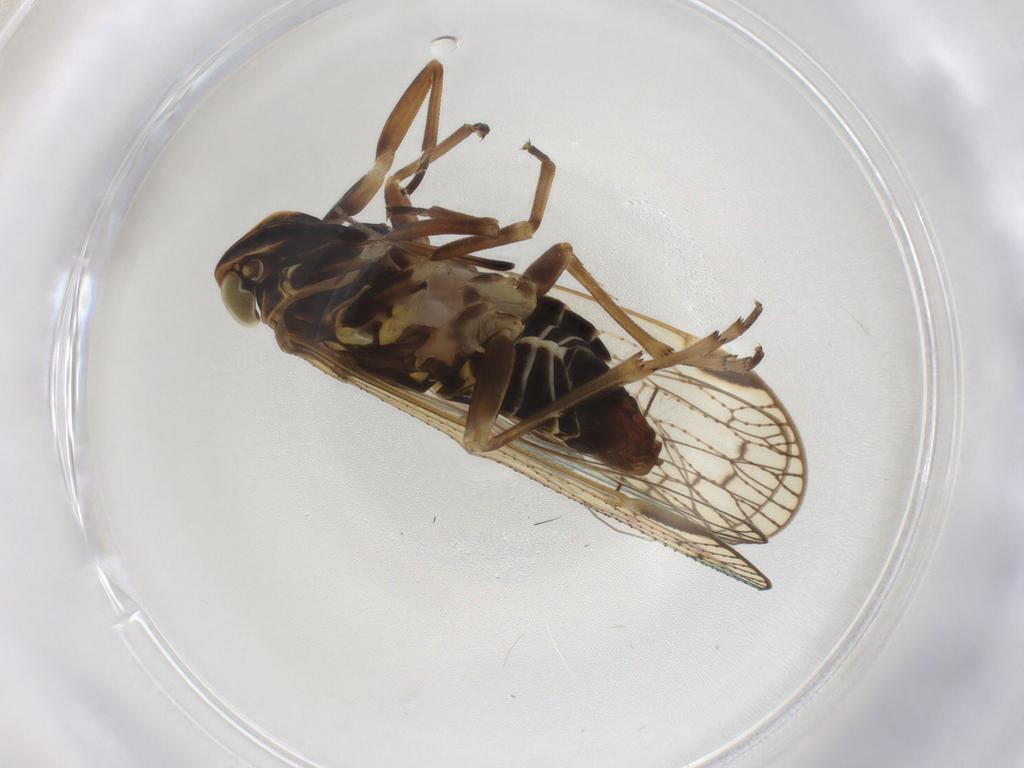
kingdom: Animalia
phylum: Arthropoda
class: Insecta
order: Hemiptera
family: Cixiidae
